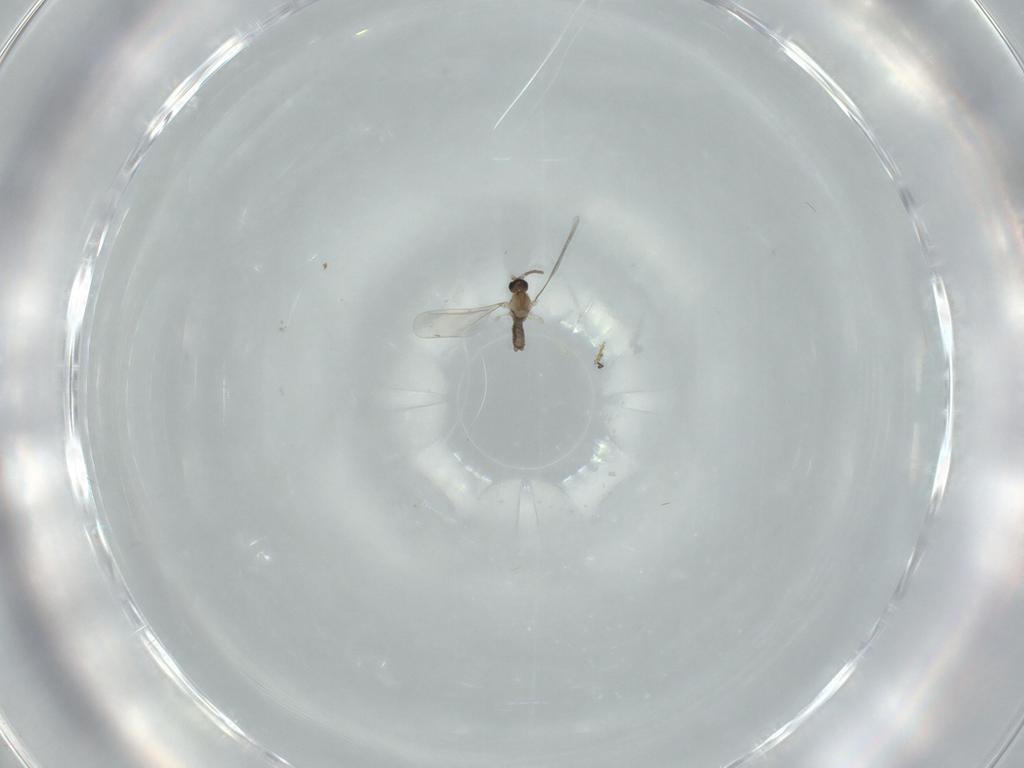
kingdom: Animalia
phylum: Arthropoda
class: Insecta
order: Diptera
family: Cecidomyiidae
